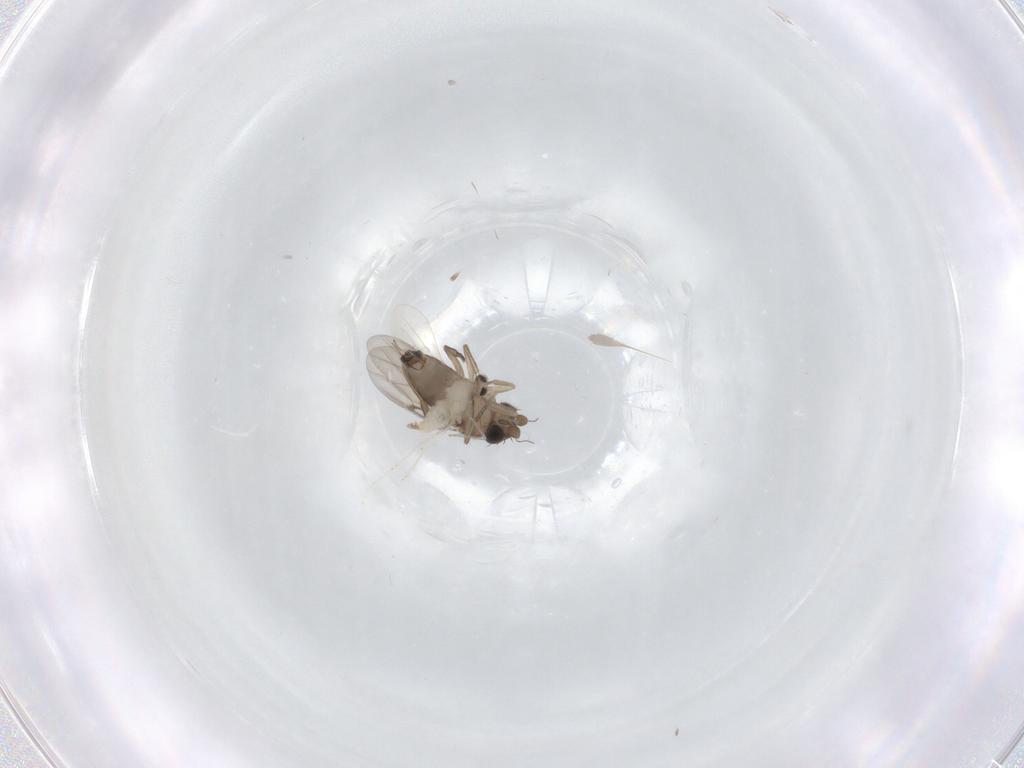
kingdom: Animalia
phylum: Arthropoda
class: Insecta
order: Diptera
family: Phoridae
